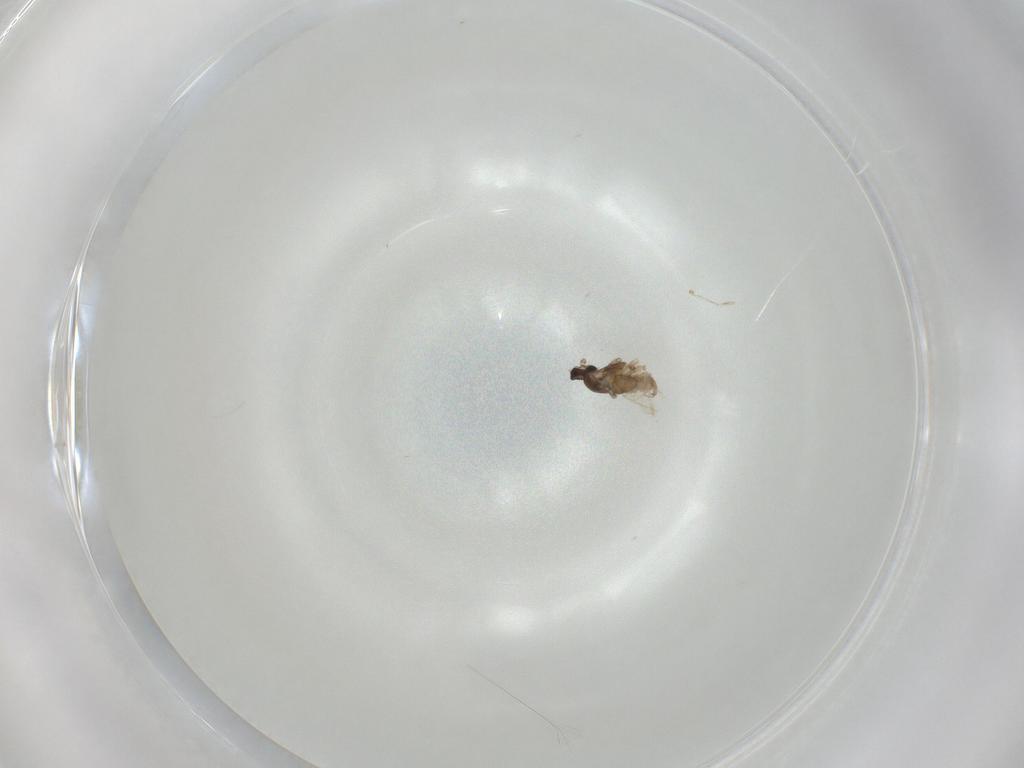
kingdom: Animalia
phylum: Arthropoda
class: Insecta
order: Diptera
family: Cecidomyiidae
